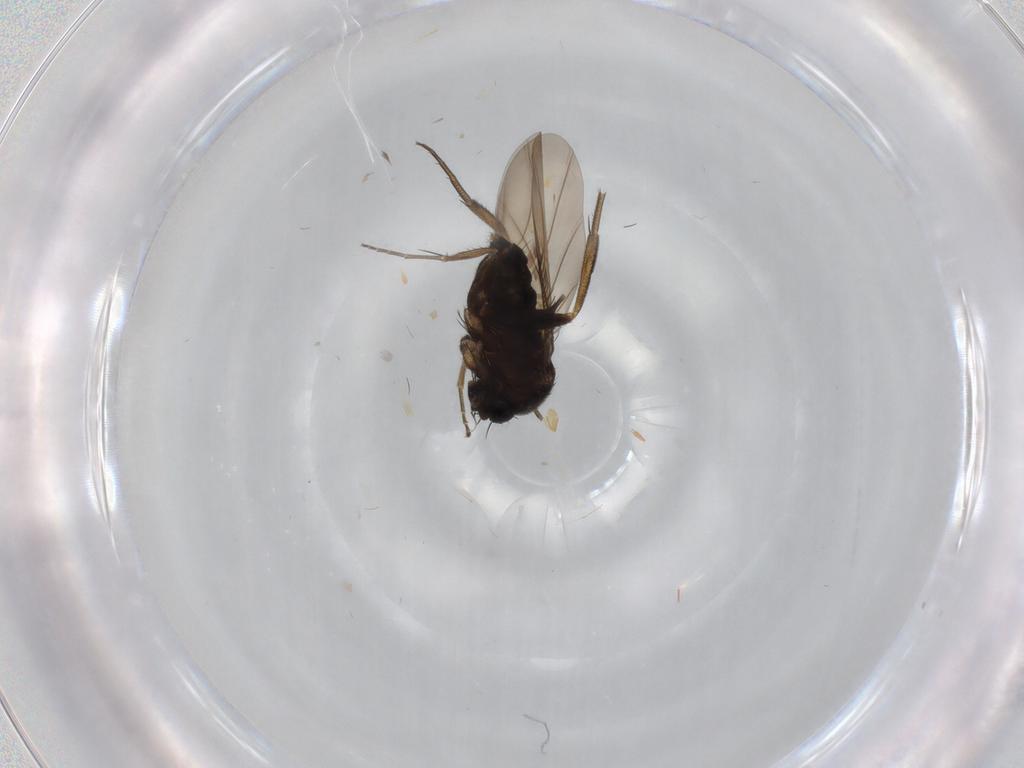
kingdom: Animalia
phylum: Arthropoda
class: Insecta
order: Diptera
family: Phoridae
